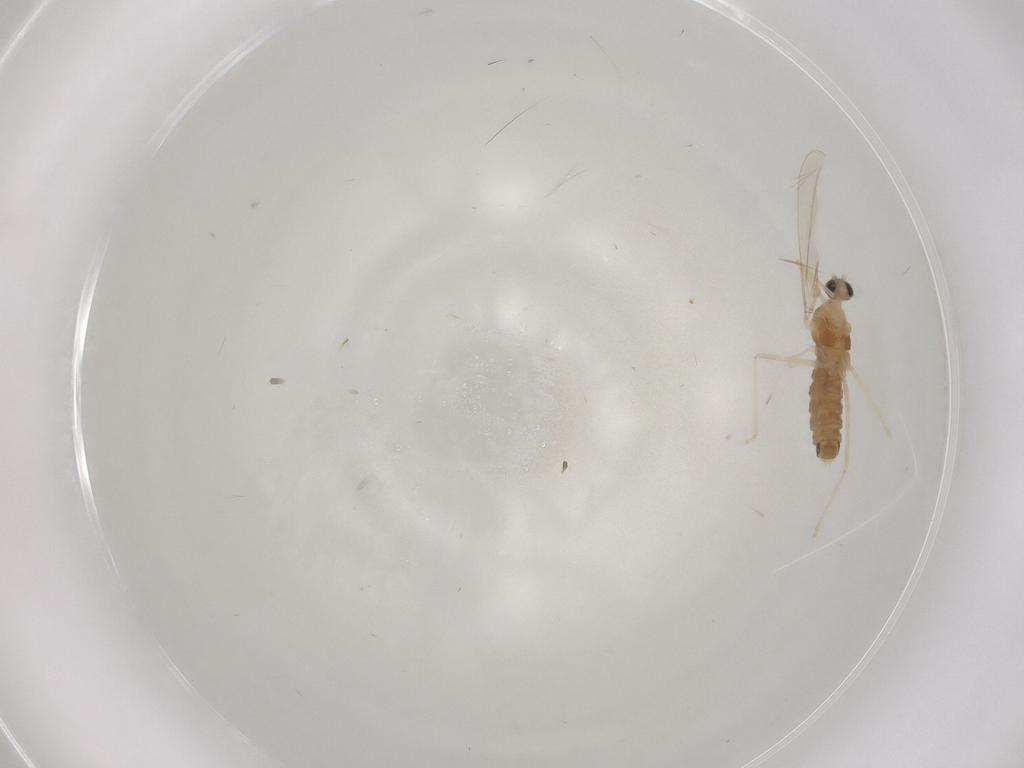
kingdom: Animalia
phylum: Arthropoda
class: Insecta
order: Diptera
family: Cecidomyiidae
